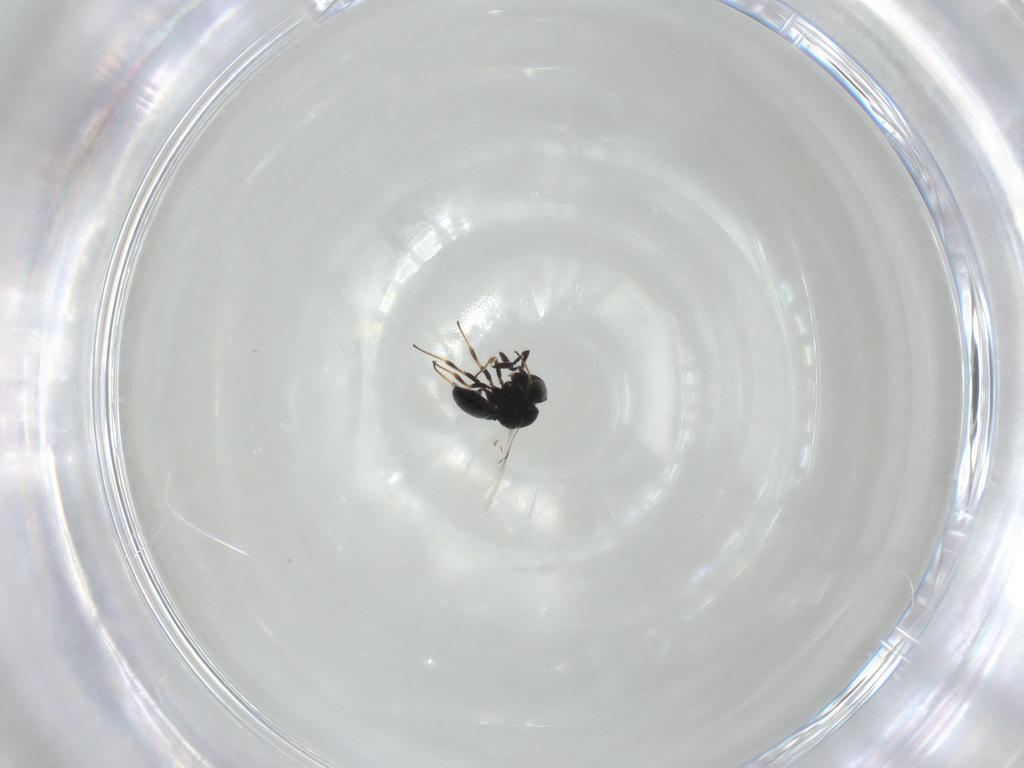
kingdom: Animalia
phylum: Arthropoda
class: Insecta
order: Hymenoptera
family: Scelionidae
